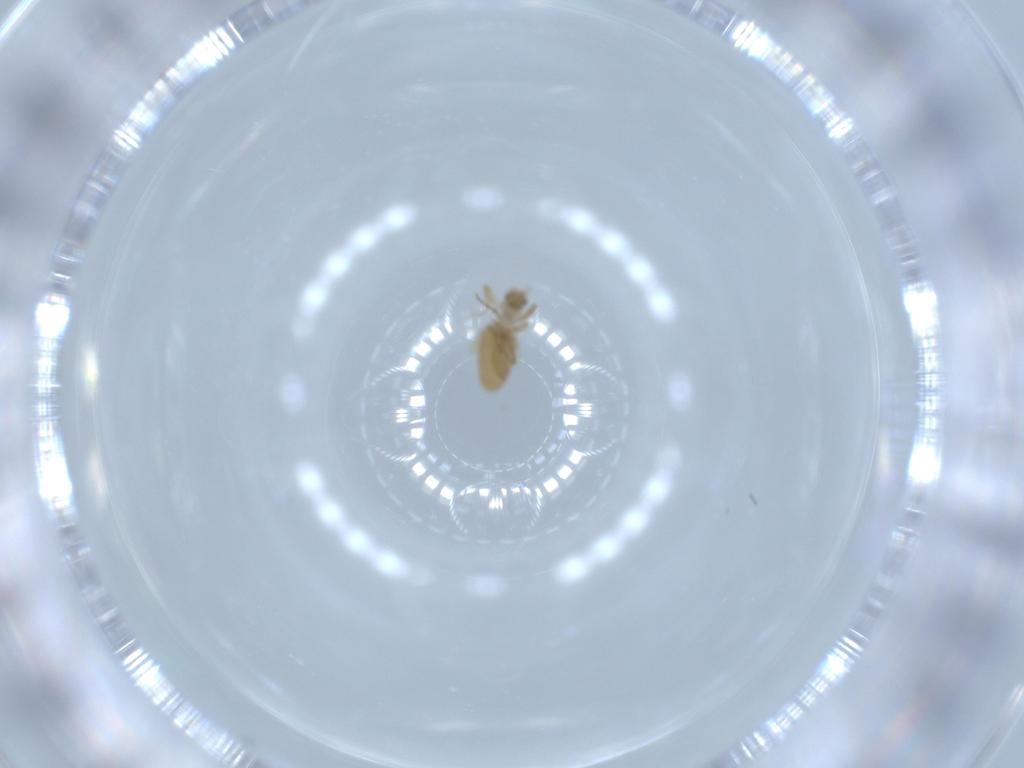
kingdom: Animalia
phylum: Arthropoda
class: Insecta
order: Diptera
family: Phoridae
